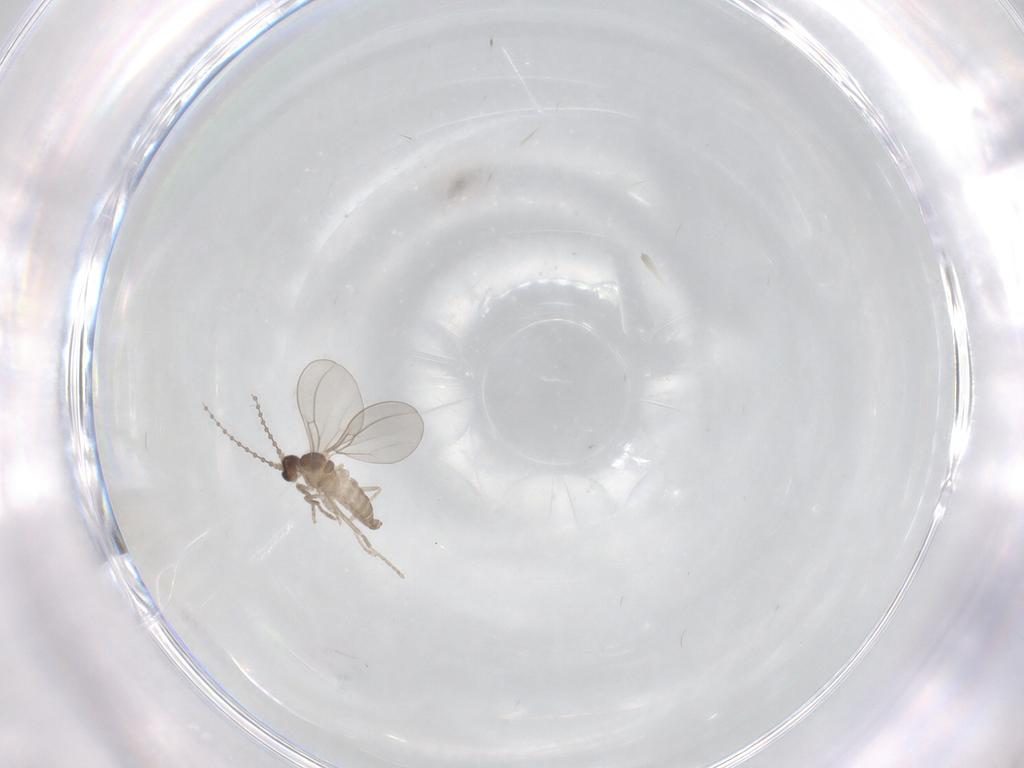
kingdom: Animalia
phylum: Arthropoda
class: Insecta
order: Diptera
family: Cecidomyiidae
